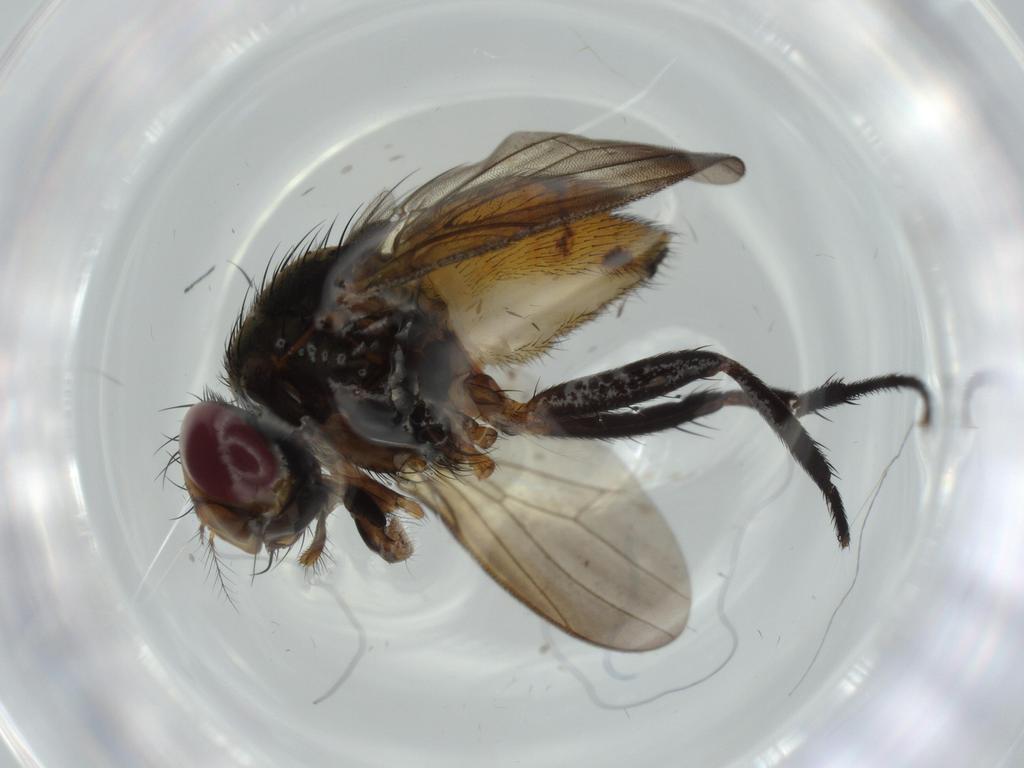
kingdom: Animalia
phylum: Arthropoda
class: Insecta
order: Diptera
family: Anthomyiidae
